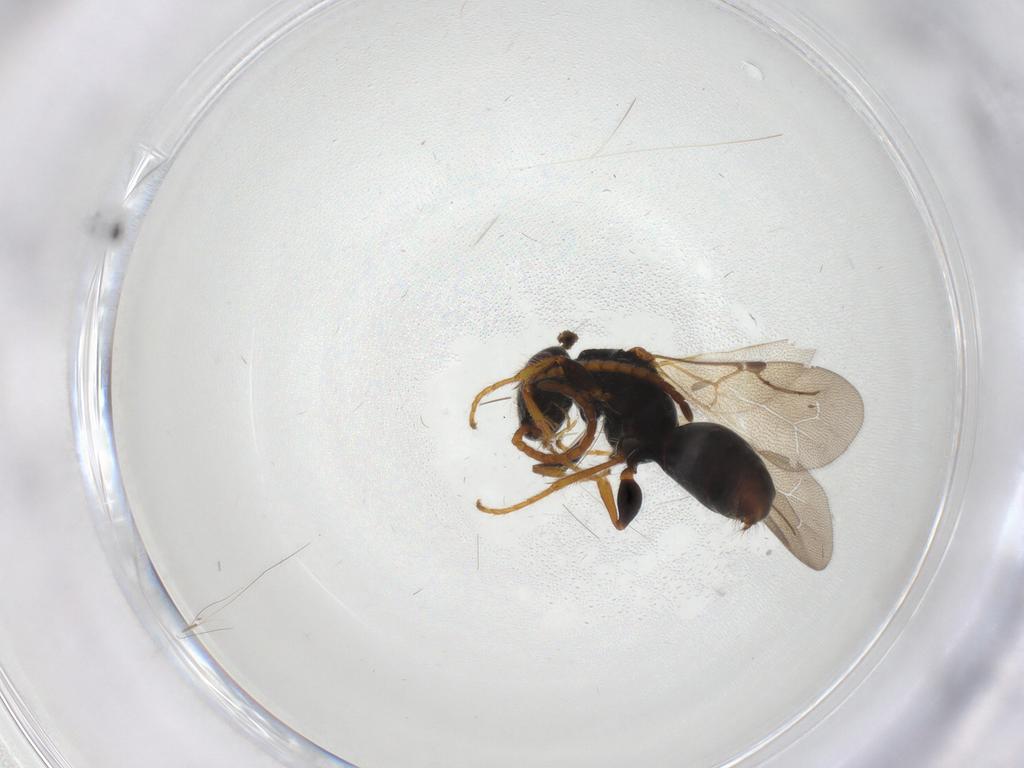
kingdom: Animalia
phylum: Arthropoda
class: Insecta
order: Hymenoptera
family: Bethylidae
